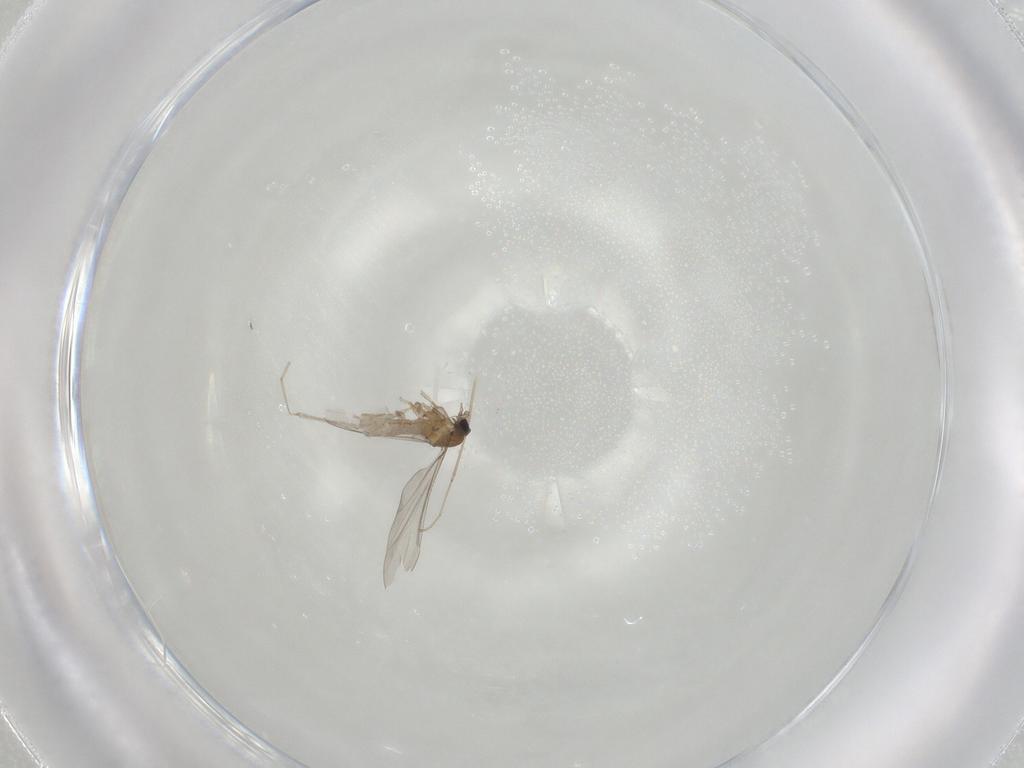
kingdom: Animalia
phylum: Arthropoda
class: Insecta
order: Diptera
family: Cecidomyiidae
